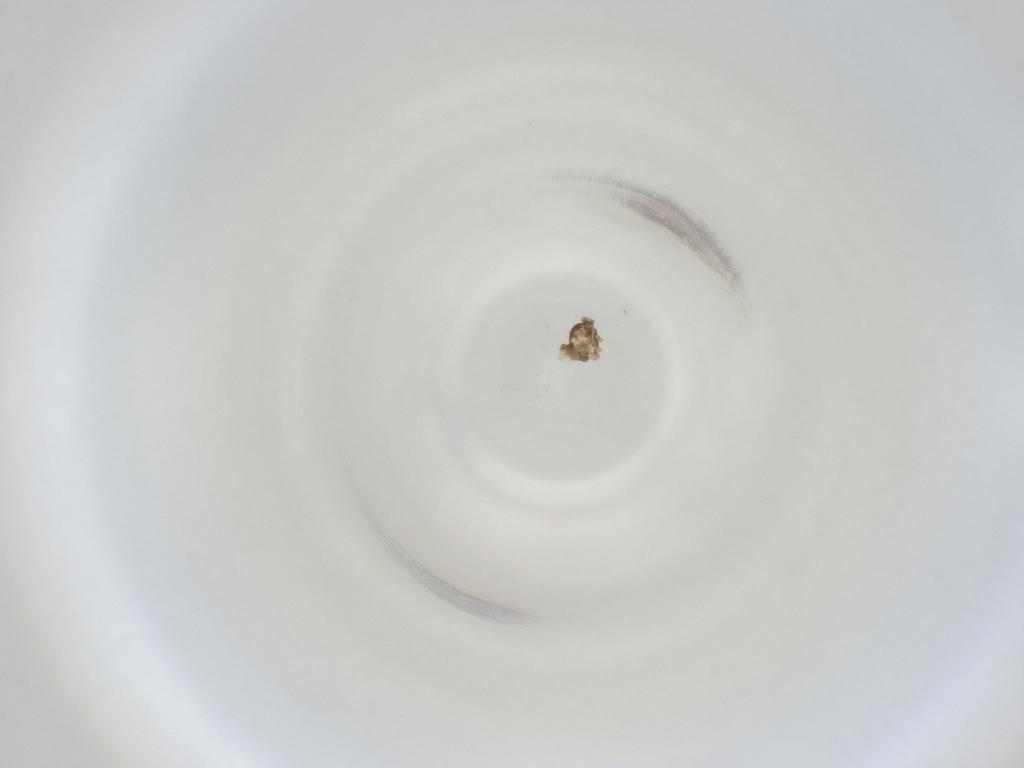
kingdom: Animalia
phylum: Arthropoda
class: Insecta
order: Diptera
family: Cecidomyiidae
